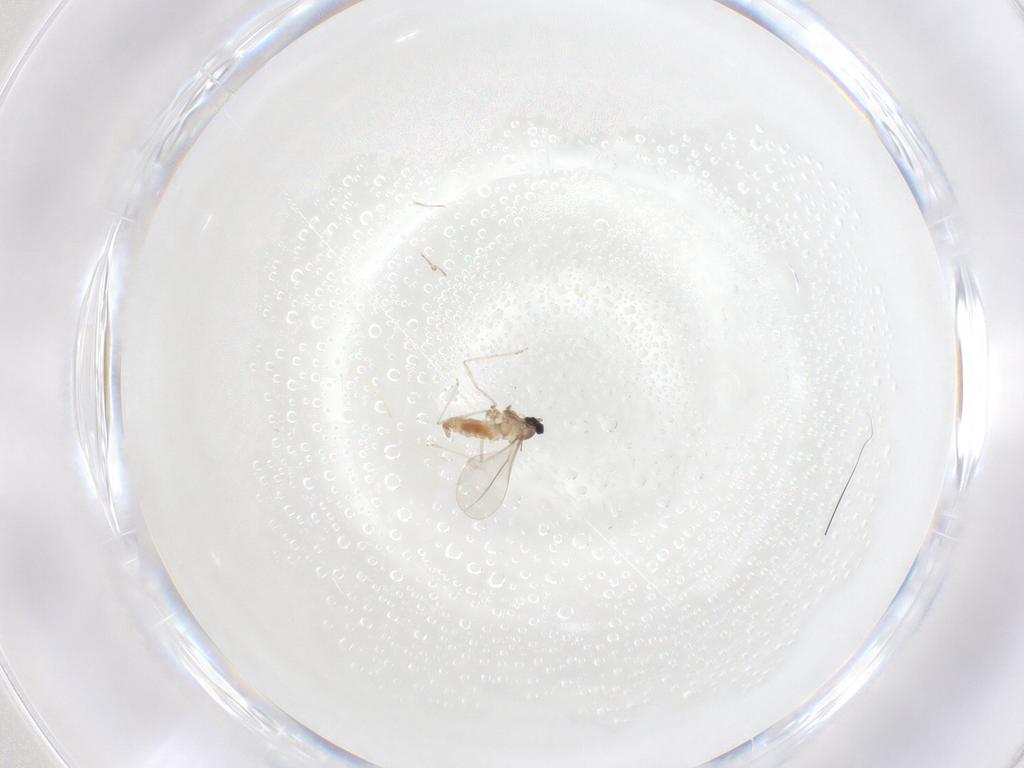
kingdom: Animalia
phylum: Arthropoda
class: Insecta
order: Diptera
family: Cecidomyiidae
